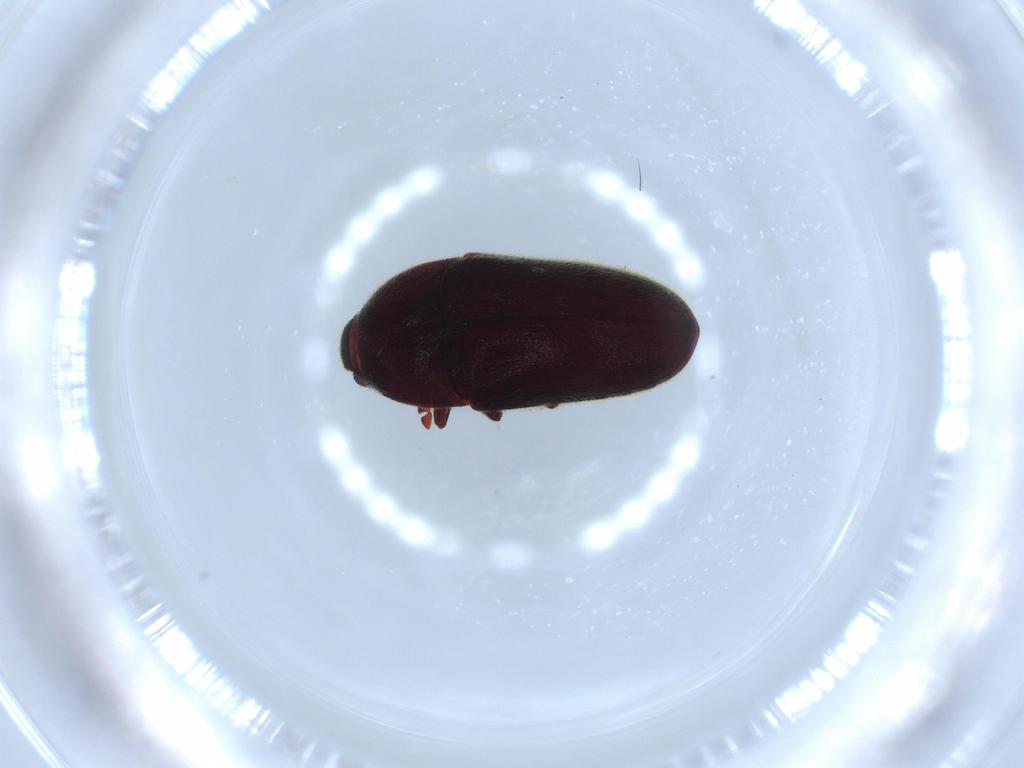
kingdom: Animalia
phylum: Arthropoda
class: Insecta
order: Coleoptera
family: Throscidae
